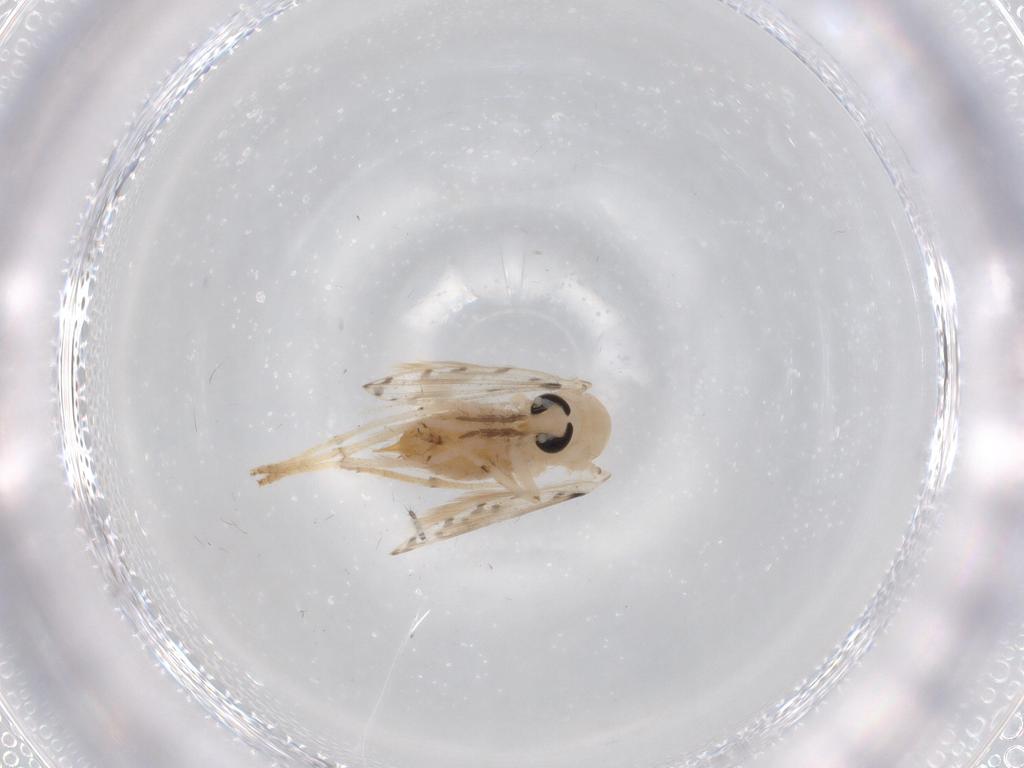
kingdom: Animalia
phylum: Arthropoda
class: Insecta
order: Diptera
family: Psychodidae
